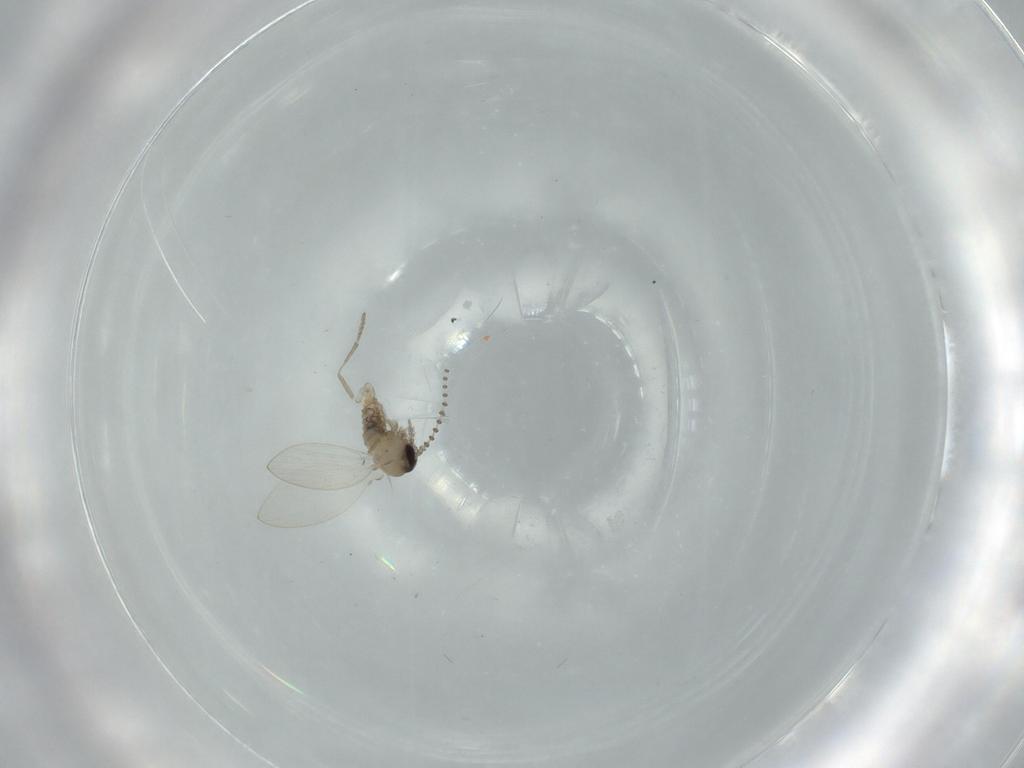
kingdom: Animalia
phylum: Arthropoda
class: Insecta
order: Diptera
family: Psychodidae
